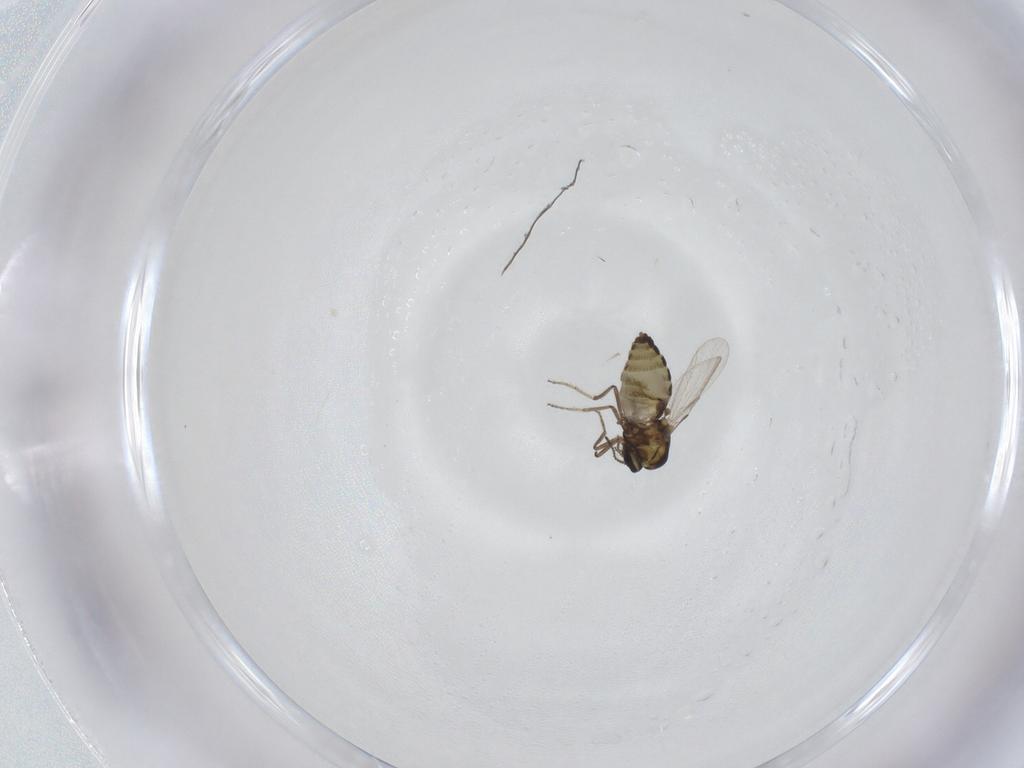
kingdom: Animalia
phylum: Arthropoda
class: Insecta
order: Diptera
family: Ceratopogonidae
